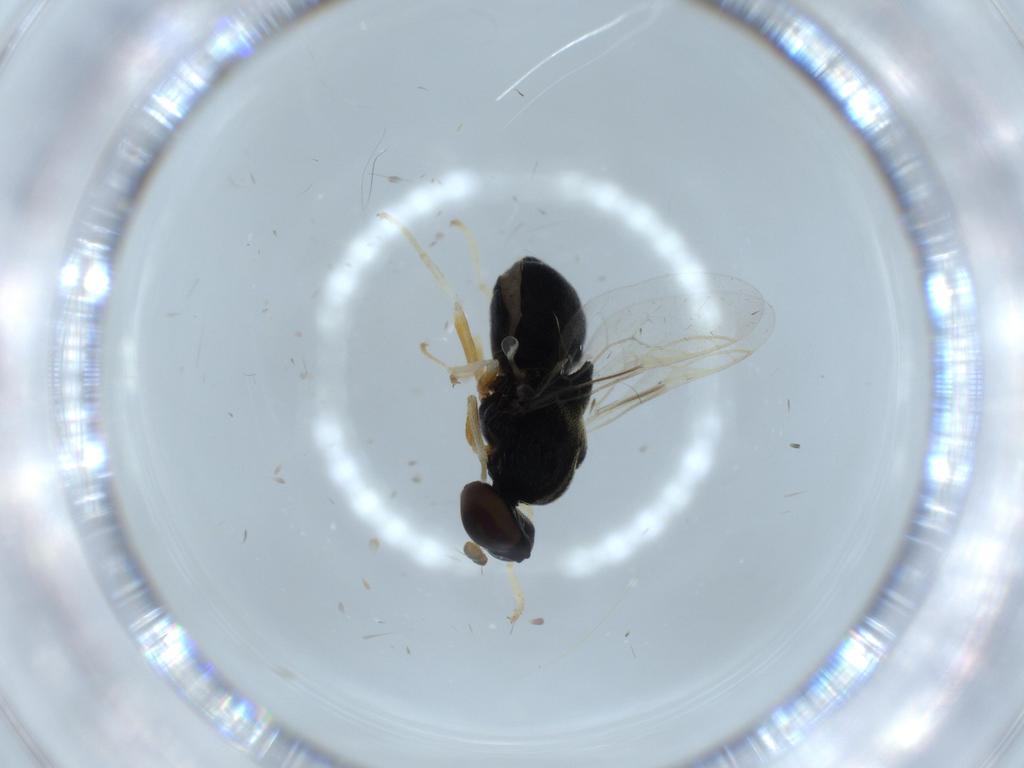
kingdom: Animalia
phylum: Arthropoda
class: Insecta
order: Diptera
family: Stratiomyidae
